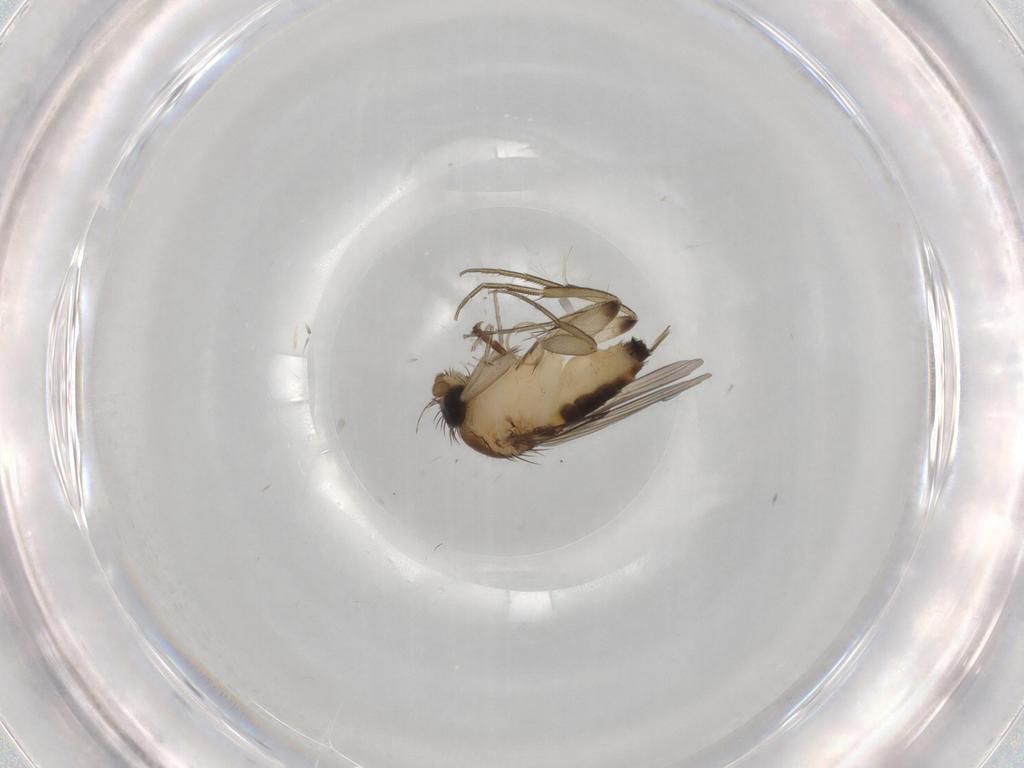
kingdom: Animalia
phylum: Arthropoda
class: Insecta
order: Diptera
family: Phoridae
